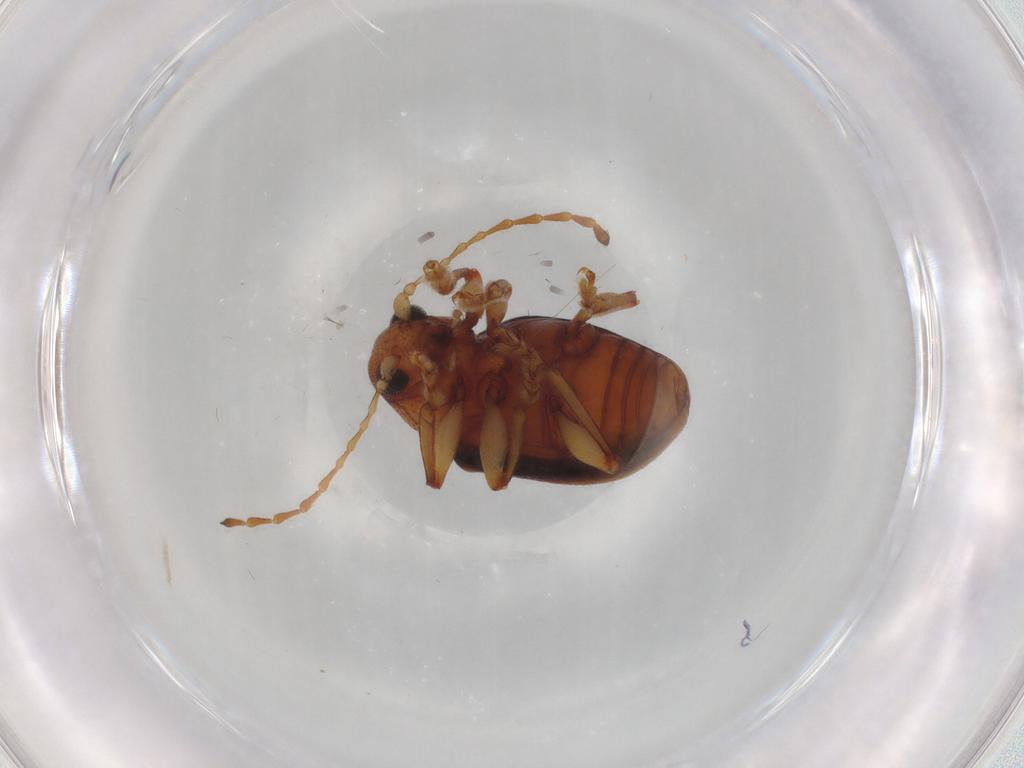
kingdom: Animalia
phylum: Arthropoda
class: Insecta
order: Coleoptera
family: Chrysomelidae
